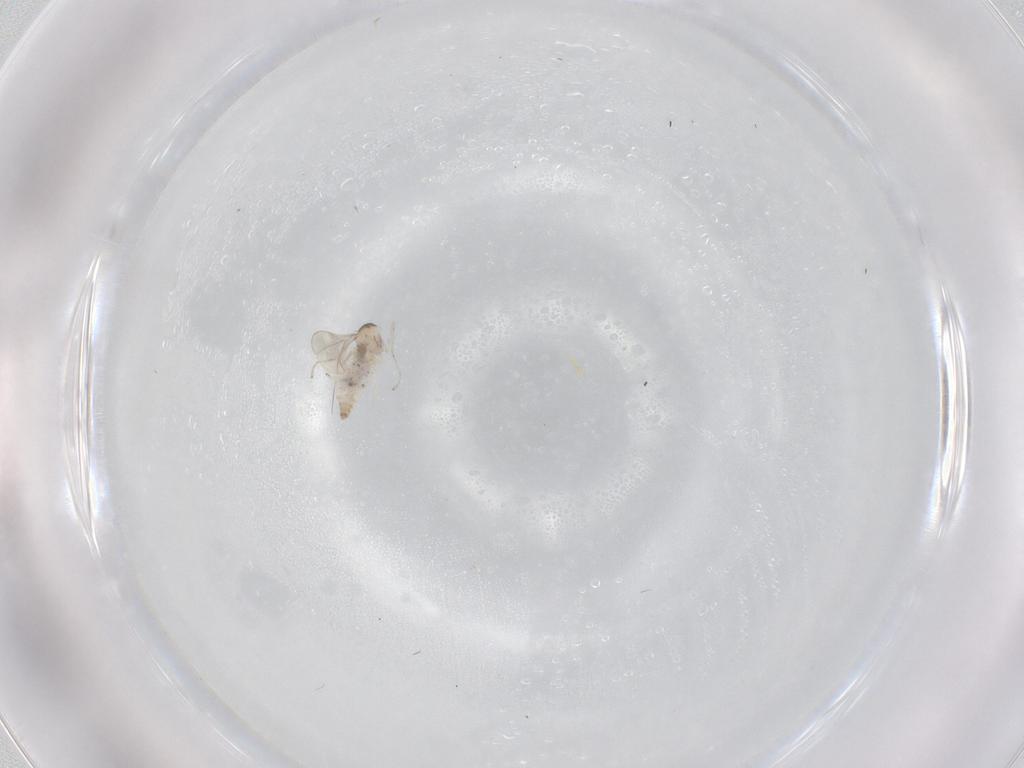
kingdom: Animalia
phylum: Arthropoda
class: Insecta
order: Diptera
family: Cecidomyiidae
